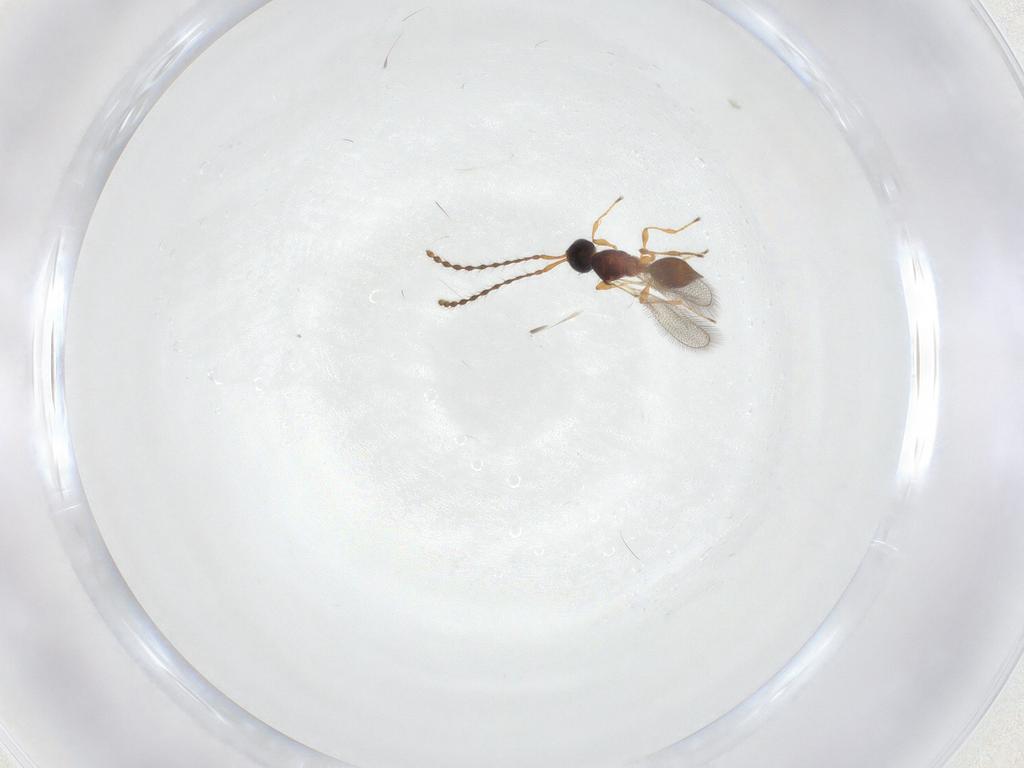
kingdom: Animalia
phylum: Arthropoda
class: Insecta
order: Hymenoptera
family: Diapriidae
